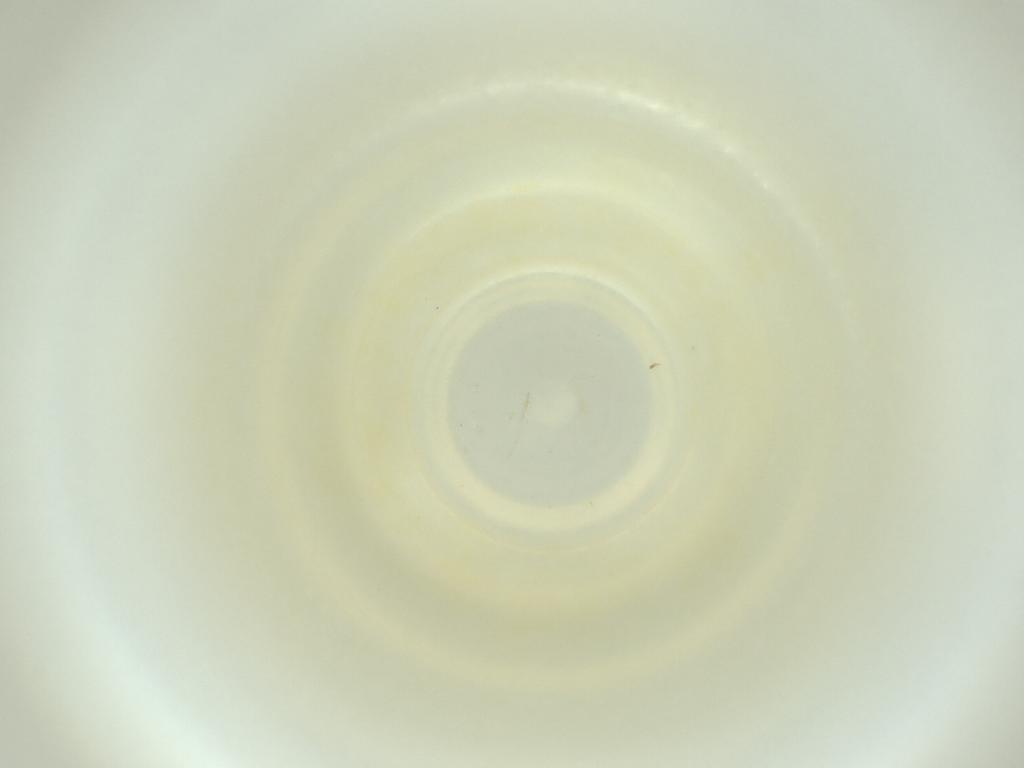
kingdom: Animalia
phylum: Arthropoda
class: Insecta
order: Diptera
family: Cecidomyiidae
